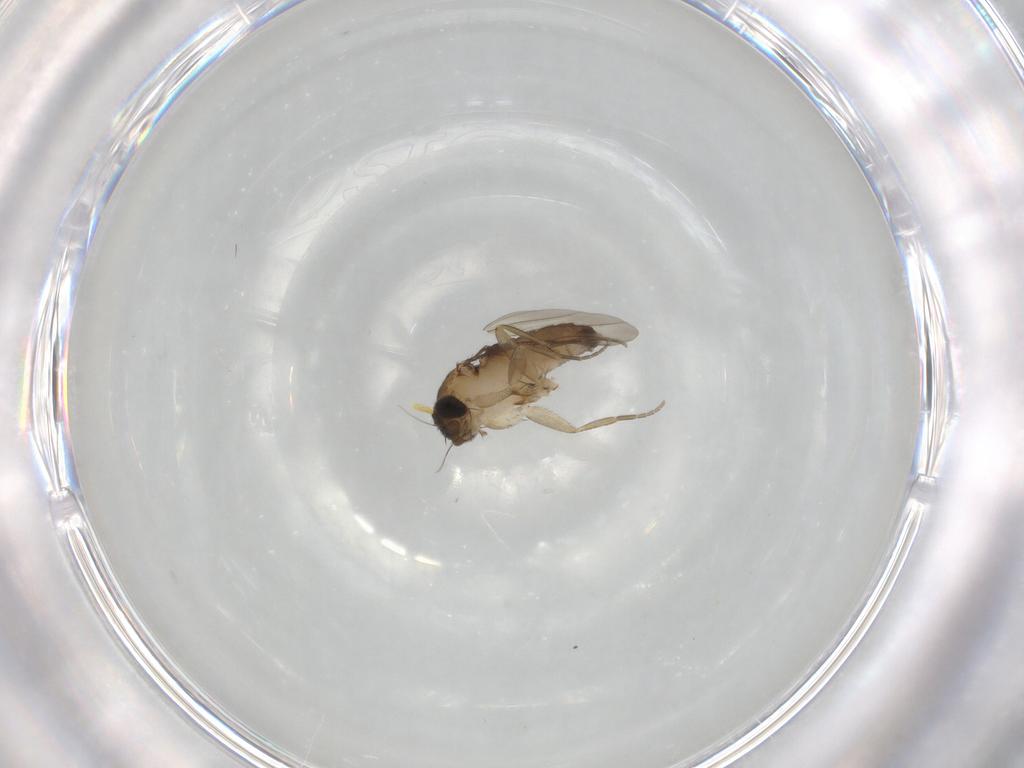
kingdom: Animalia
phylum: Arthropoda
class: Insecta
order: Diptera
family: Phoridae
